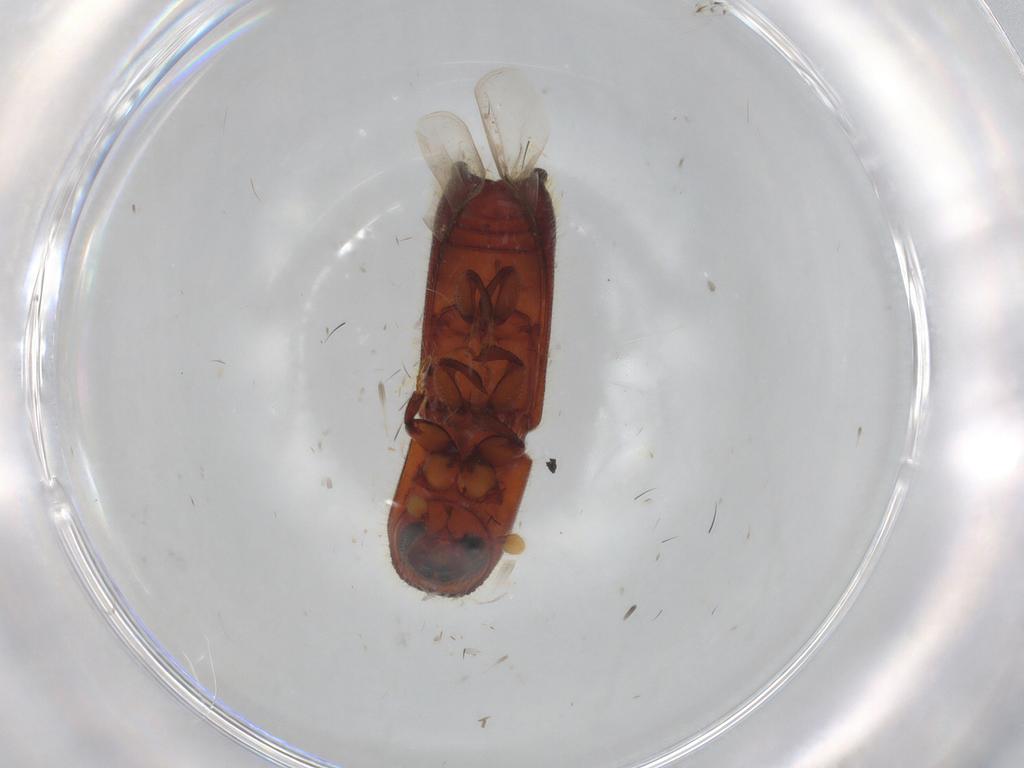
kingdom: Animalia
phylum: Arthropoda
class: Insecta
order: Coleoptera
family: Curculionidae
